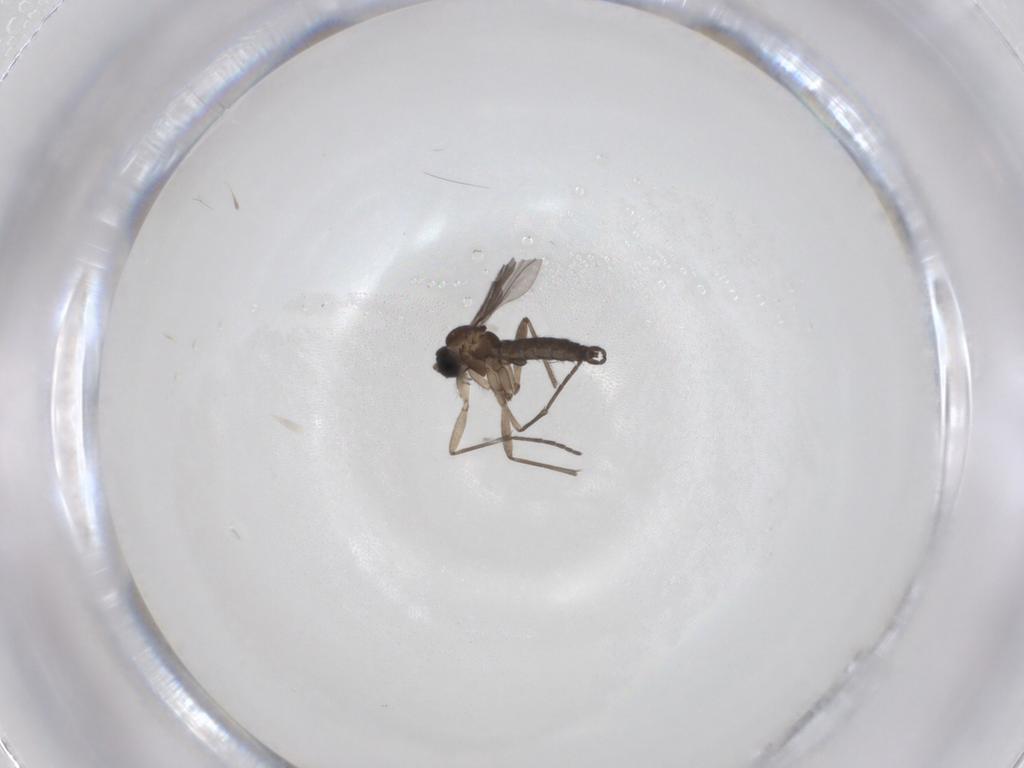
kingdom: Animalia
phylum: Arthropoda
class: Insecta
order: Diptera
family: Sciaridae
